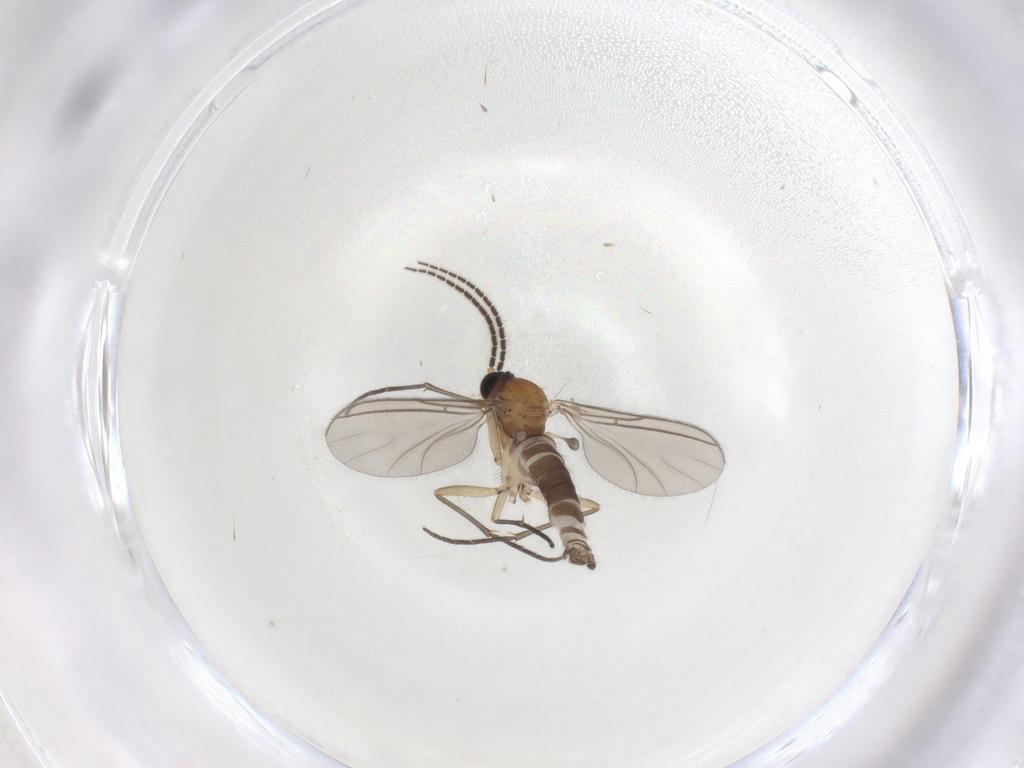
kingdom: Animalia
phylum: Arthropoda
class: Insecta
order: Diptera
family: Sciaridae
